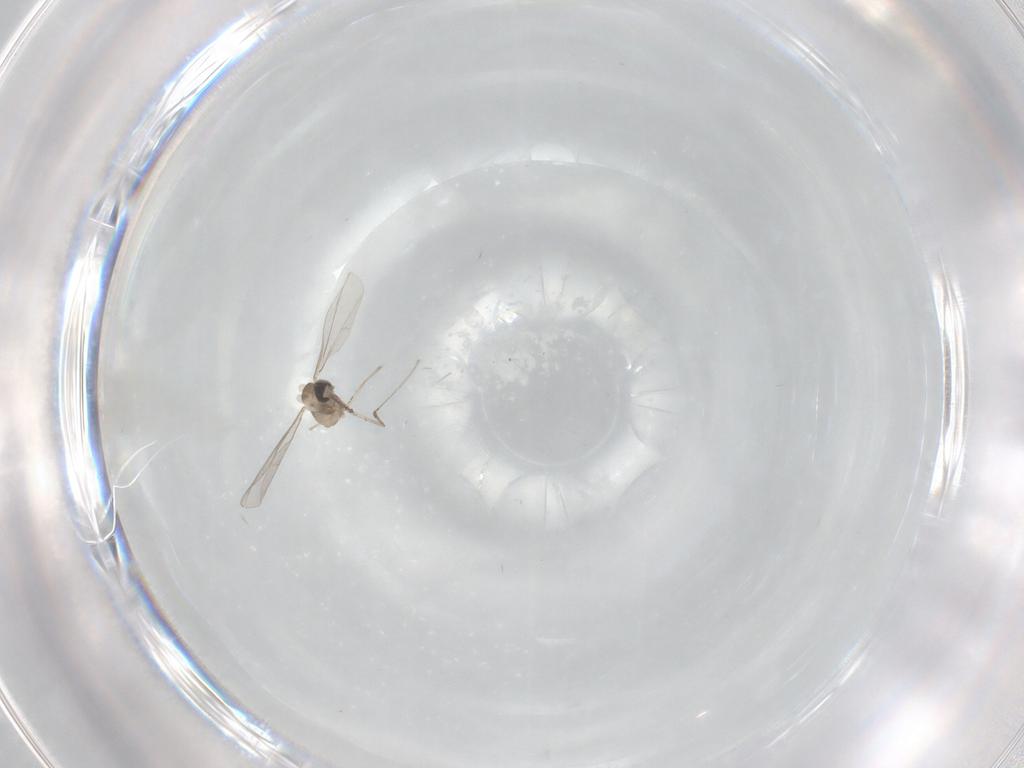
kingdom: Animalia
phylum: Arthropoda
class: Insecta
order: Diptera
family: Cecidomyiidae
